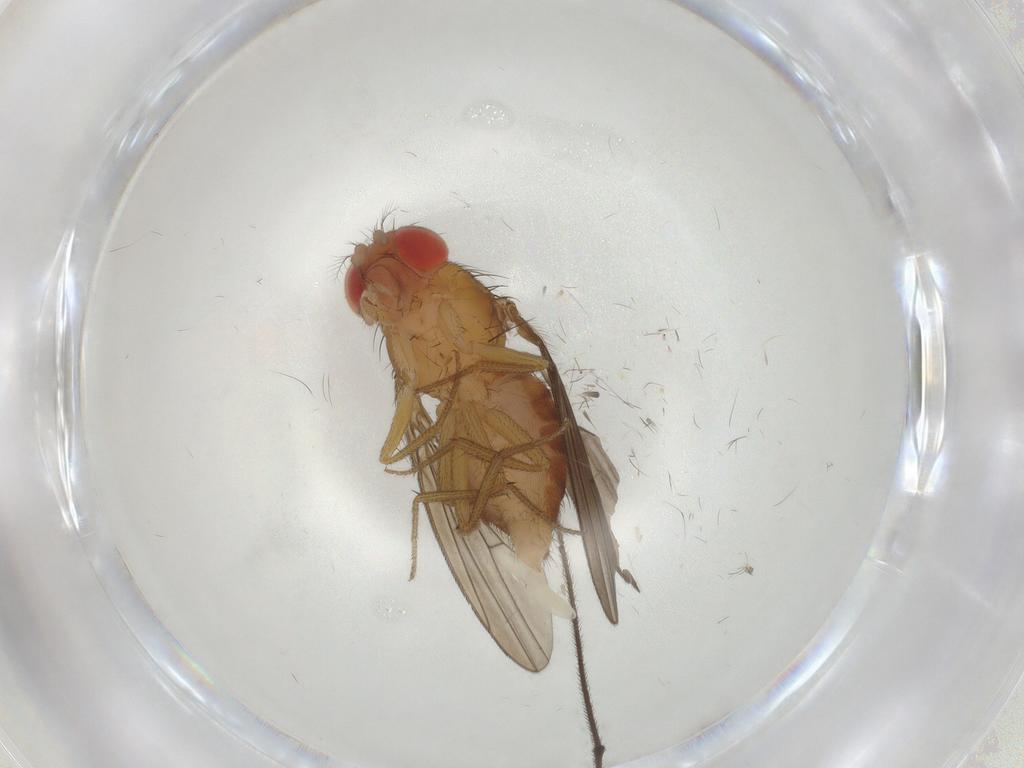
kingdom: Animalia
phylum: Arthropoda
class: Insecta
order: Diptera
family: Drosophilidae
